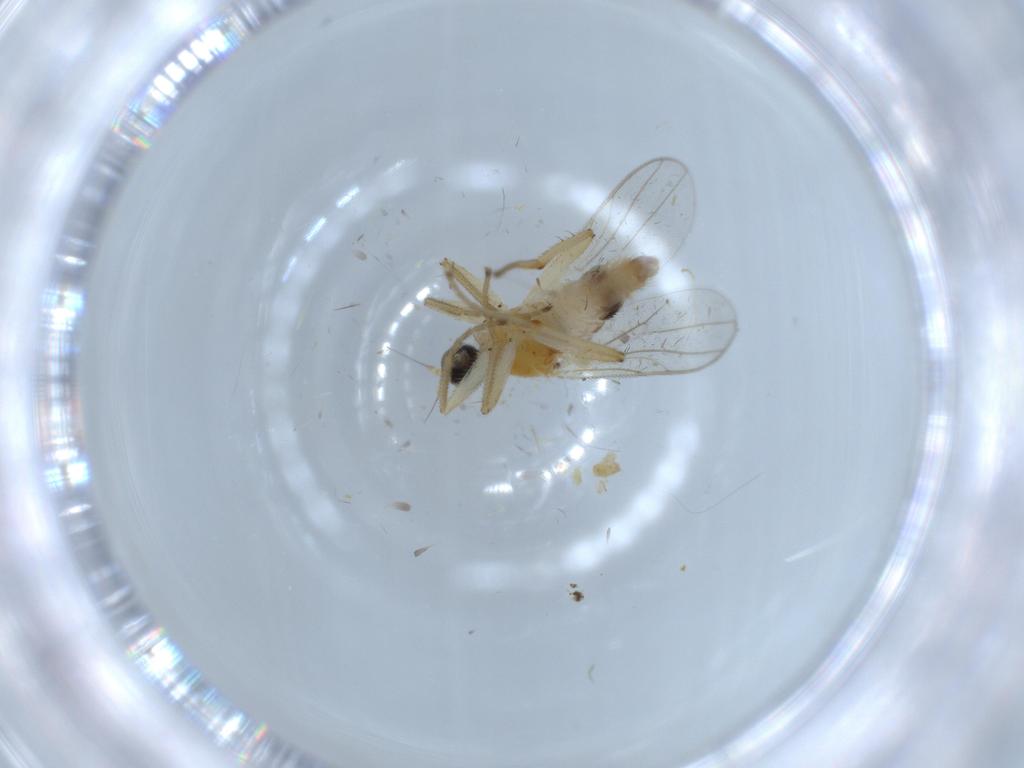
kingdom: Animalia
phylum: Arthropoda
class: Insecta
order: Diptera
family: Hybotidae
